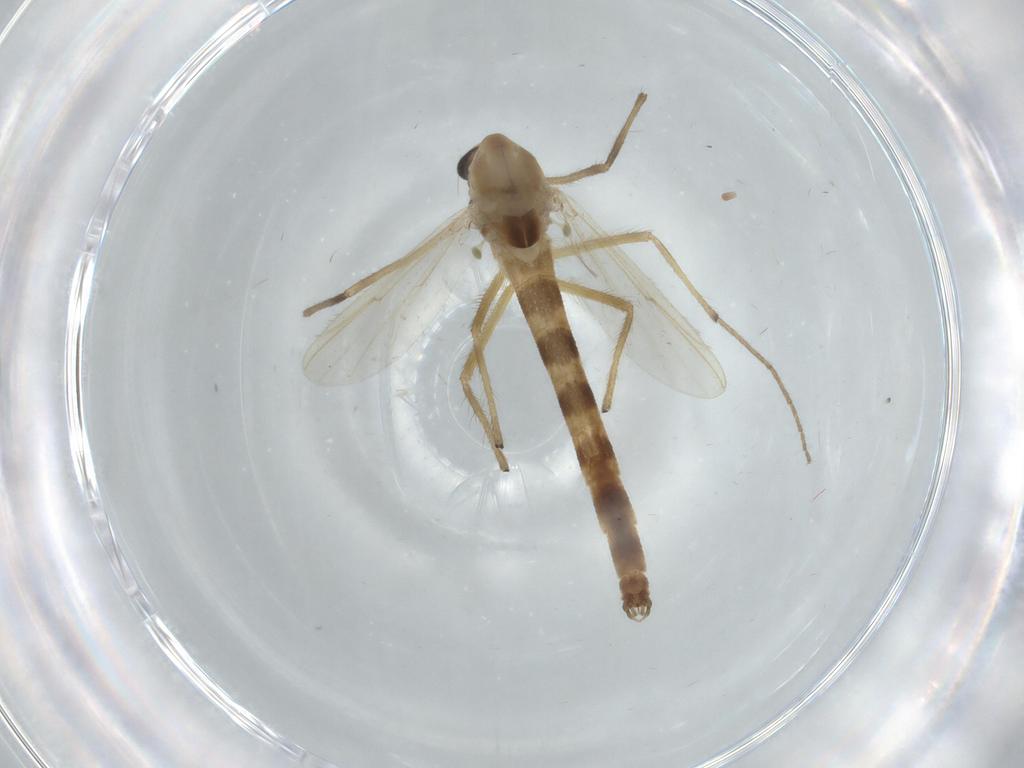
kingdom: Animalia
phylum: Arthropoda
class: Insecta
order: Diptera
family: Chironomidae
